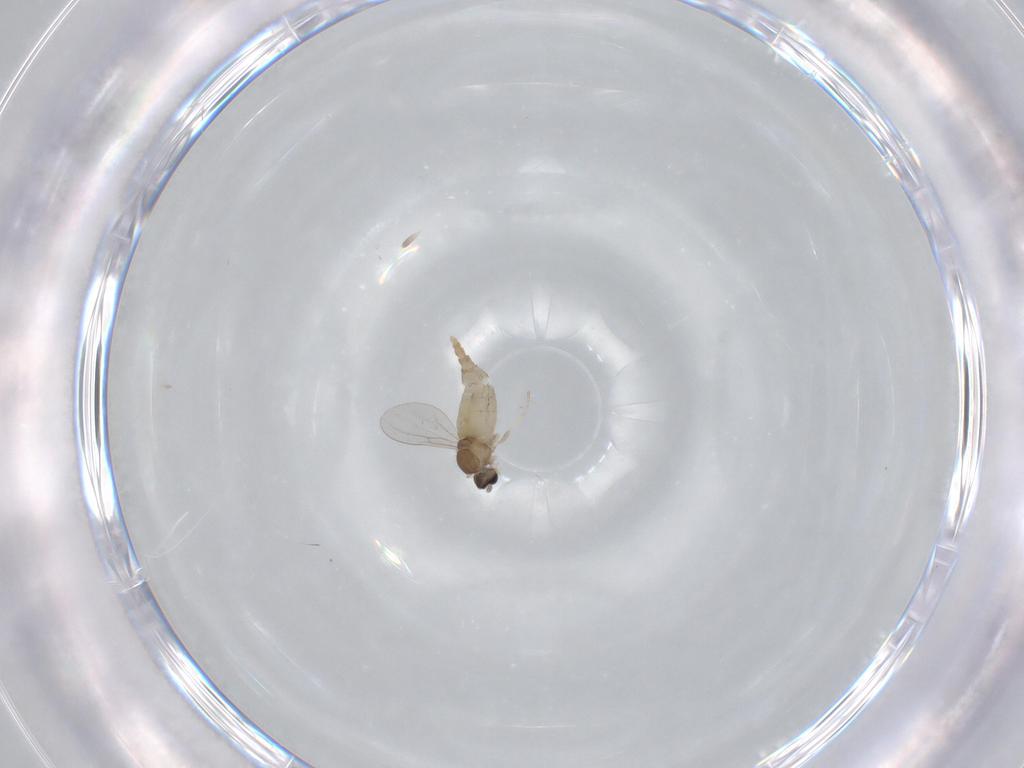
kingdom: Animalia
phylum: Arthropoda
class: Insecta
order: Diptera
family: Cecidomyiidae
